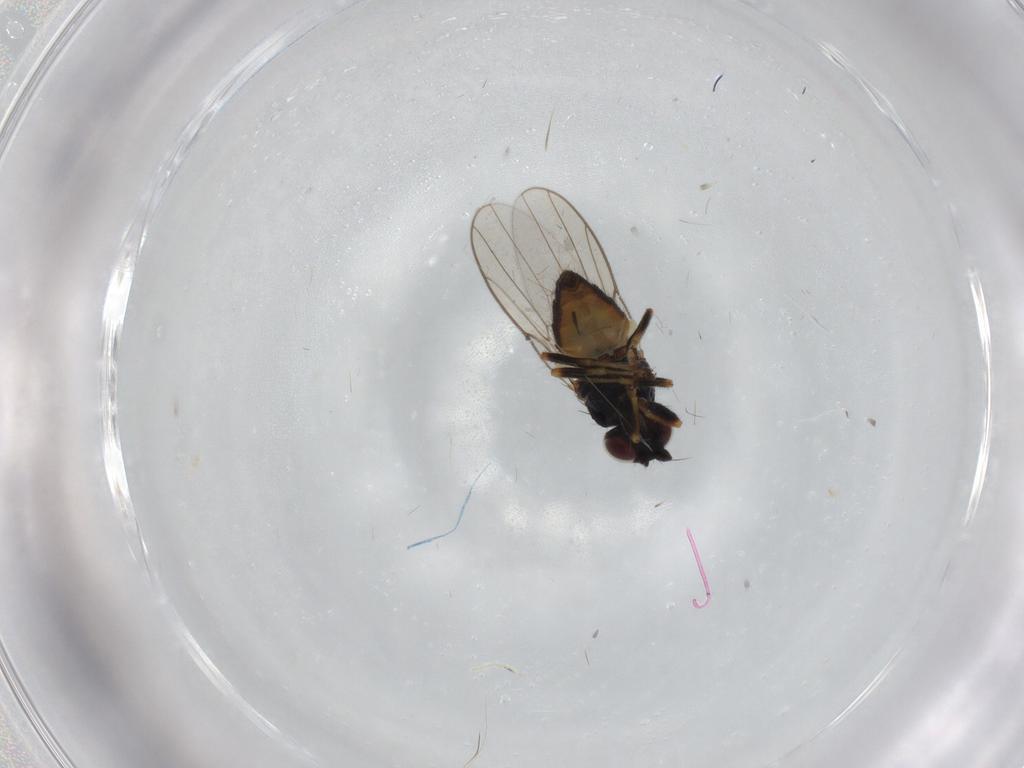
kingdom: Animalia
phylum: Arthropoda
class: Insecta
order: Diptera
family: Chloropidae
